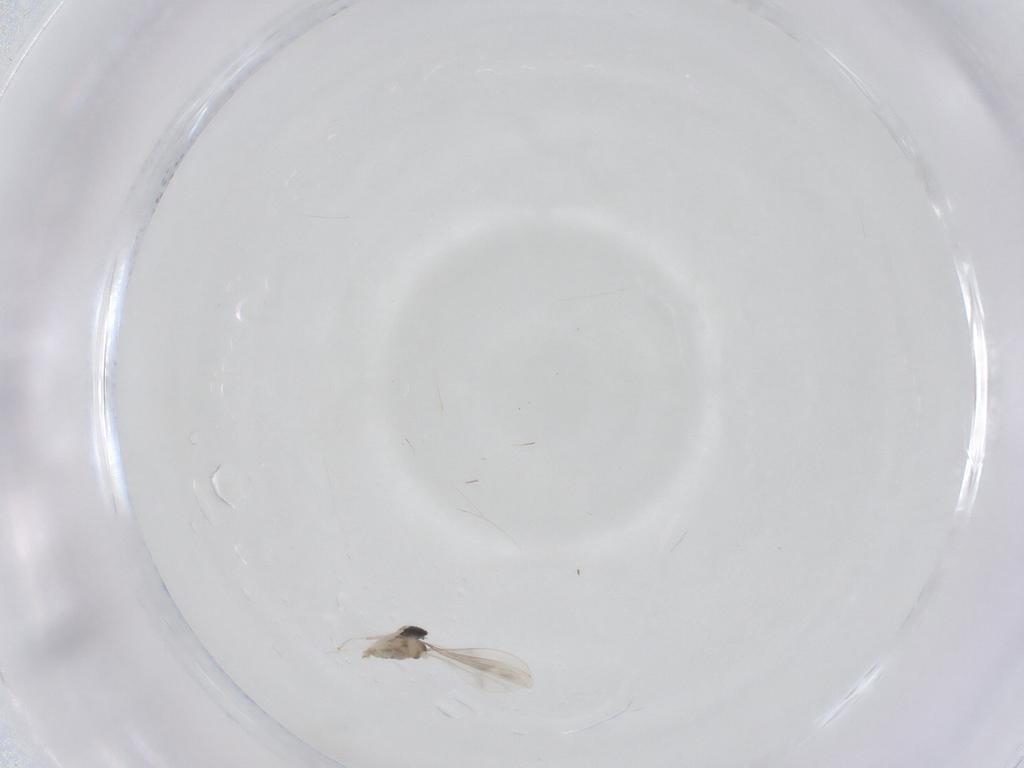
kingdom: Animalia
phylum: Arthropoda
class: Insecta
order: Diptera
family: Cecidomyiidae
